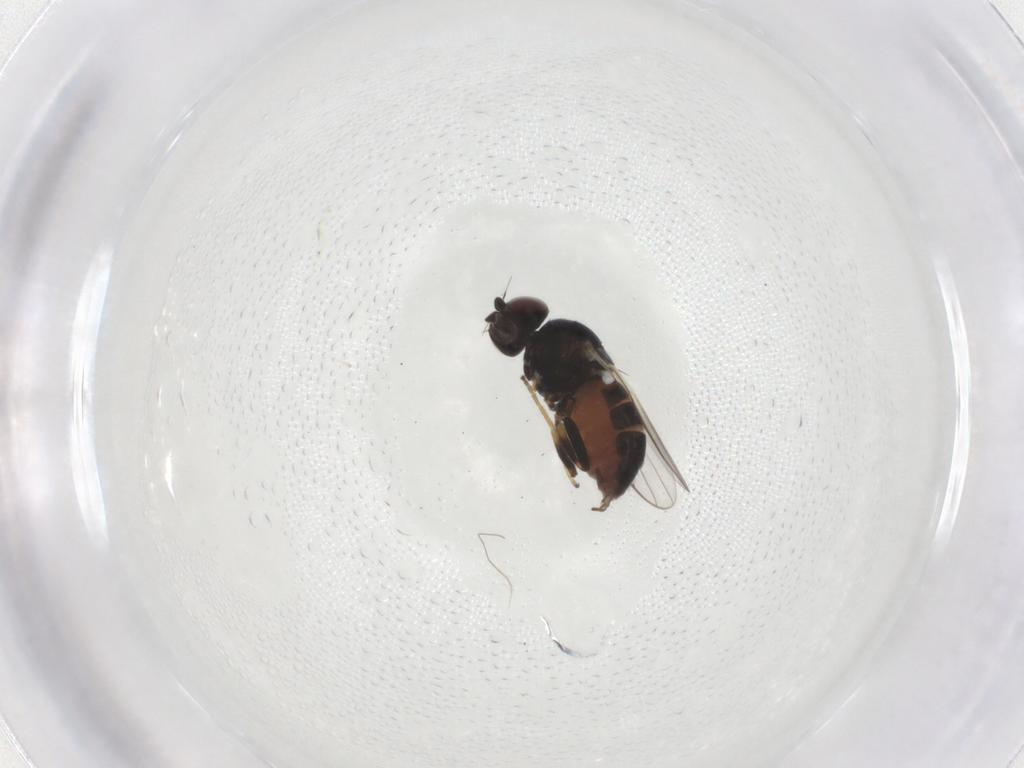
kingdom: Animalia
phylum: Arthropoda
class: Insecta
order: Diptera
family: Chloropidae
